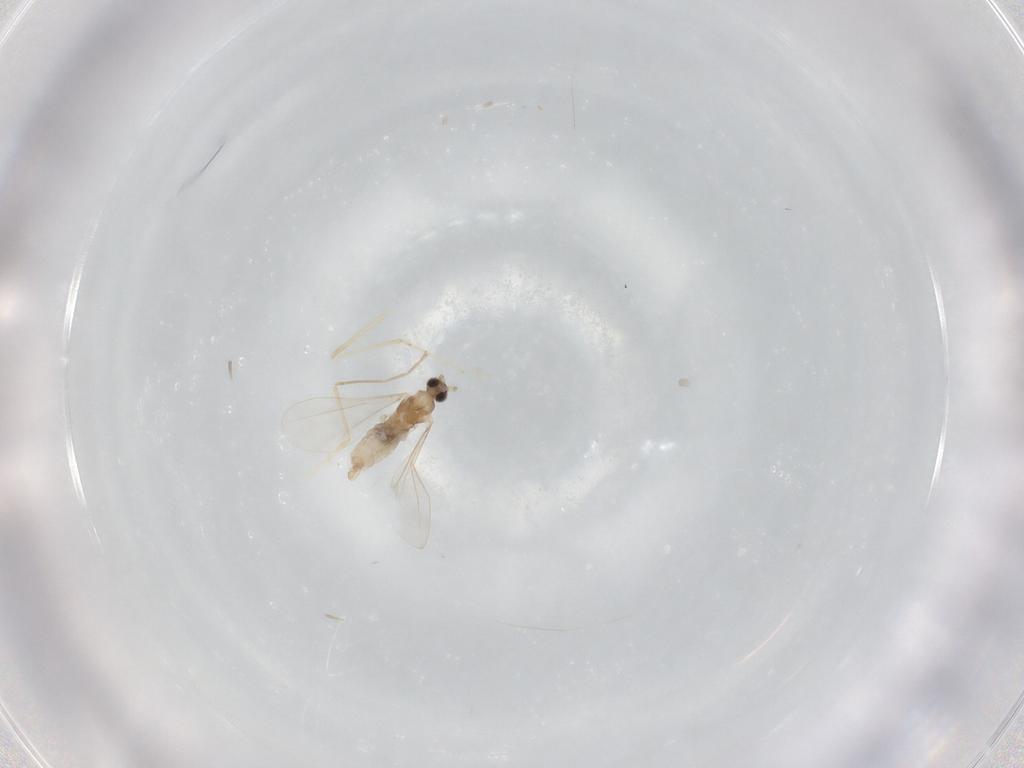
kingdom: Animalia
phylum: Arthropoda
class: Insecta
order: Diptera
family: Cecidomyiidae
